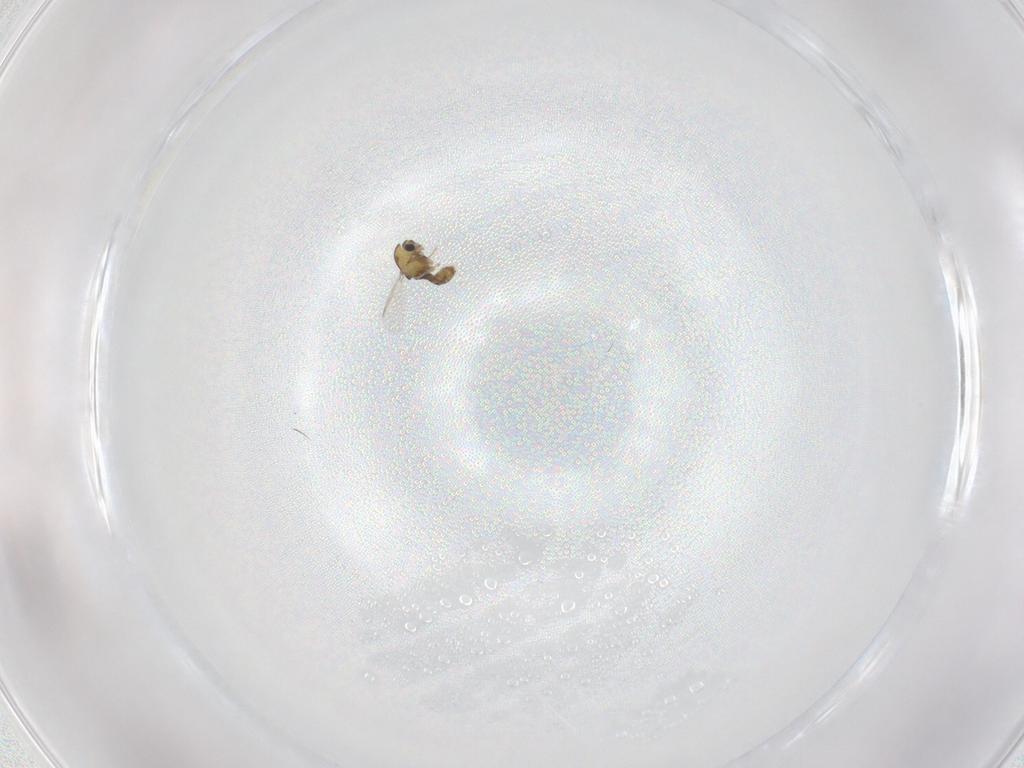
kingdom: Animalia
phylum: Arthropoda
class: Insecta
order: Diptera
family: Chironomidae
